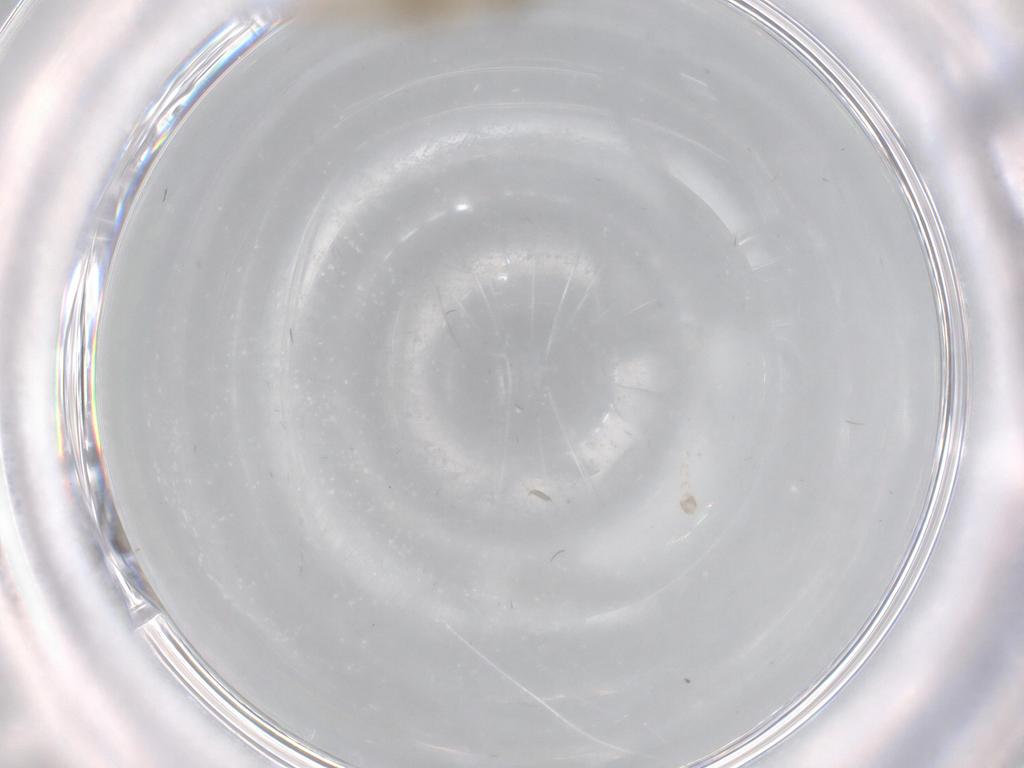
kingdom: Animalia
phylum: Arthropoda
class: Insecta
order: Orthoptera
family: Gryllidae
